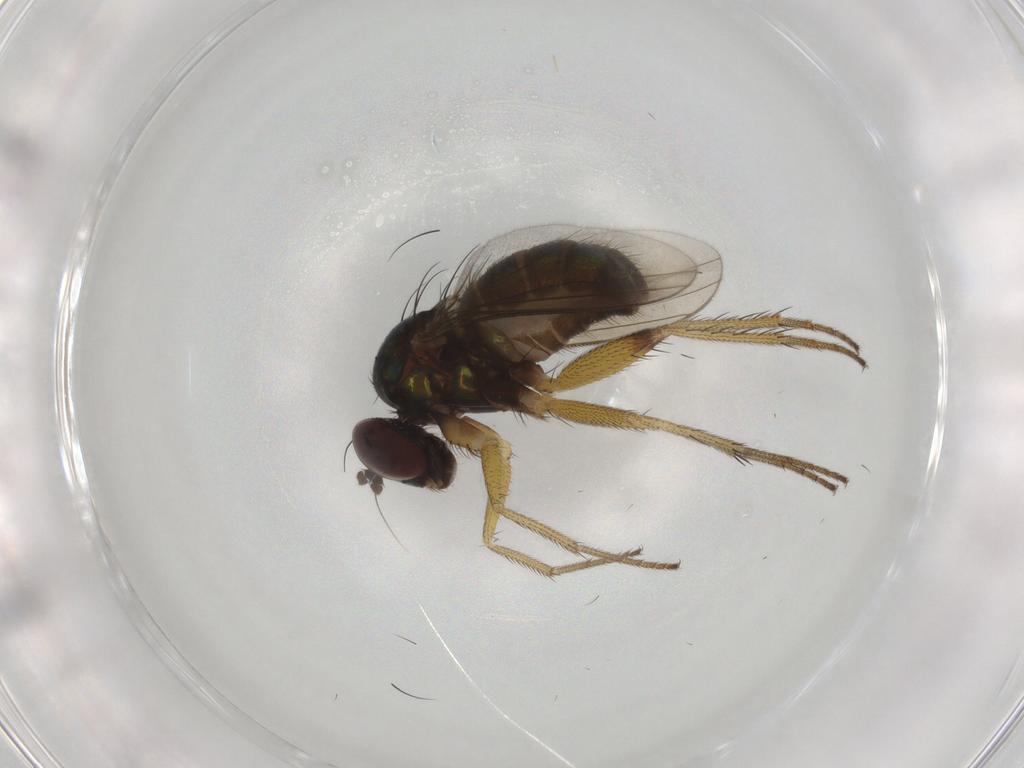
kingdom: Animalia
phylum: Arthropoda
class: Insecta
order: Diptera
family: Dolichopodidae
